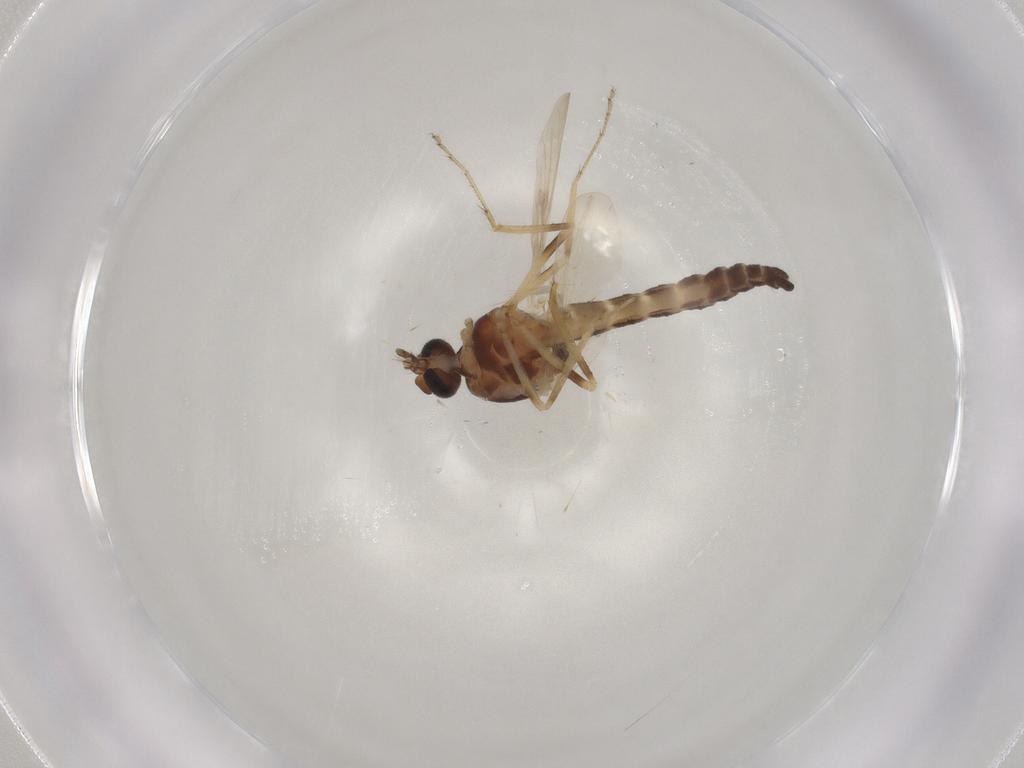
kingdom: Animalia
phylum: Arthropoda
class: Insecta
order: Diptera
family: Ceratopogonidae
